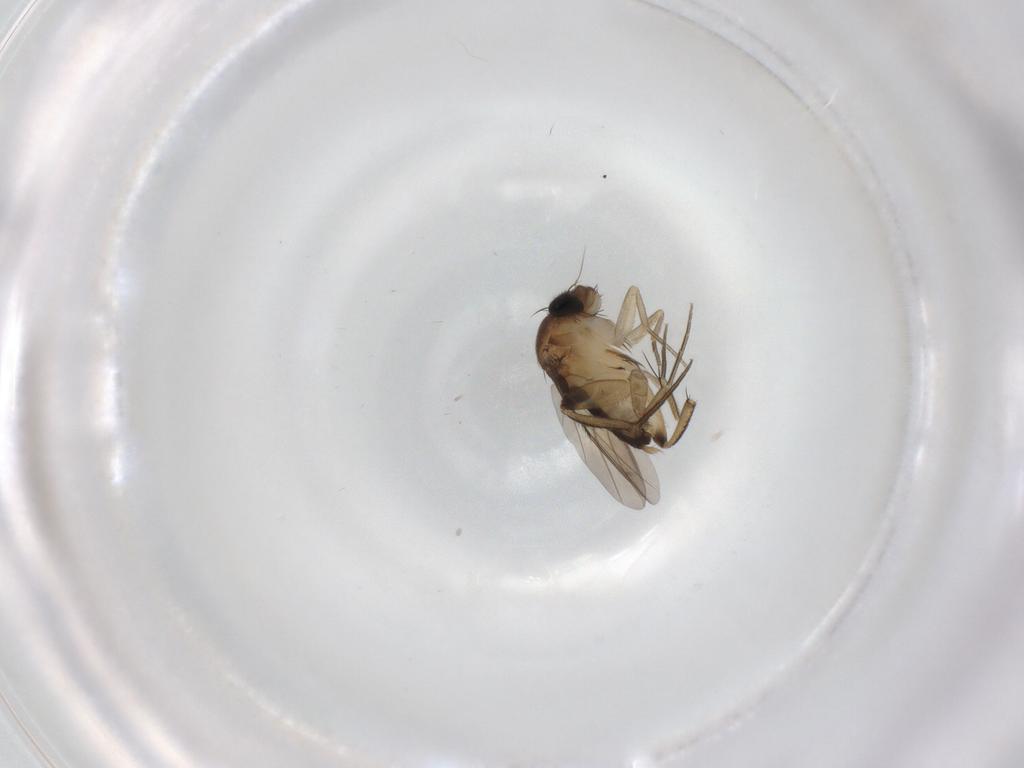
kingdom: Animalia
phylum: Arthropoda
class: Insecta
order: Diptera
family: Phoridae
